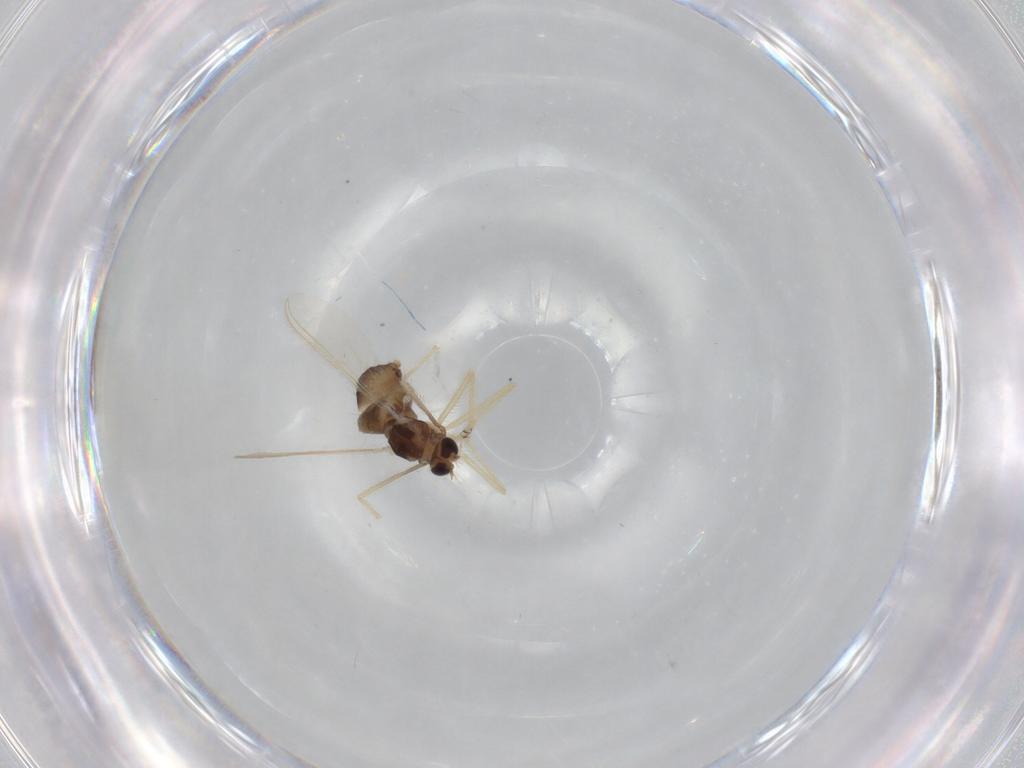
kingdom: Animalia
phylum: Arthropoda
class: Insecta
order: Diptera
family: Chironomidae
